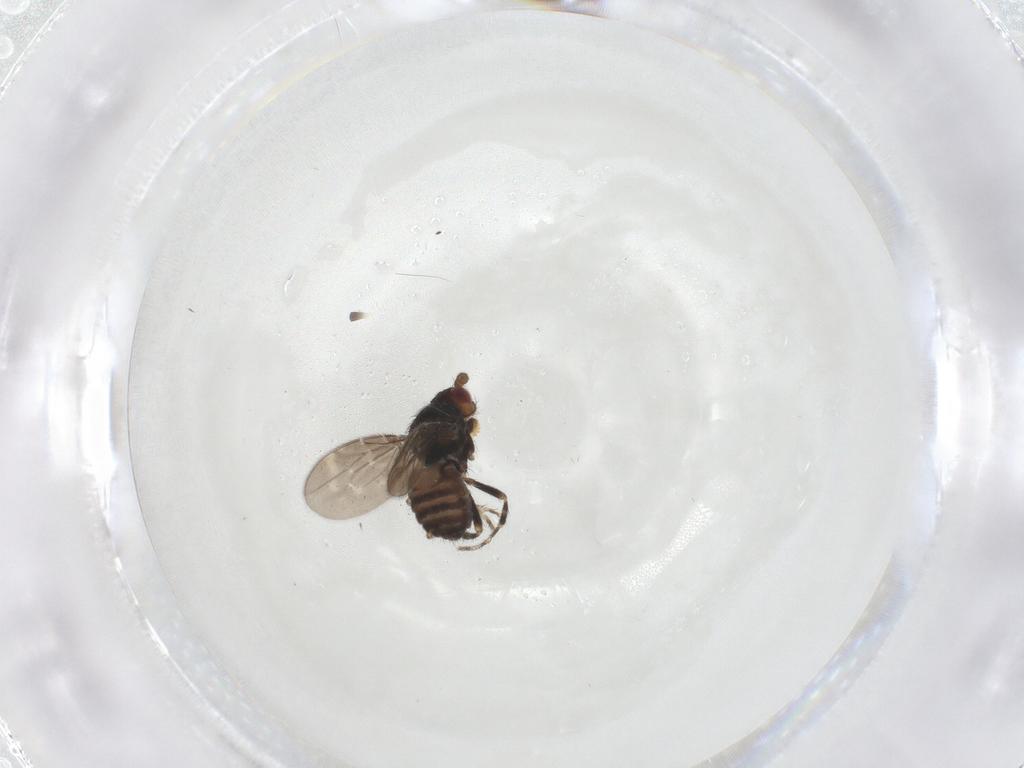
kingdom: Animalia
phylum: Arthropoda
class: Insecta
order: Diptera
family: Sphaeroceridae
